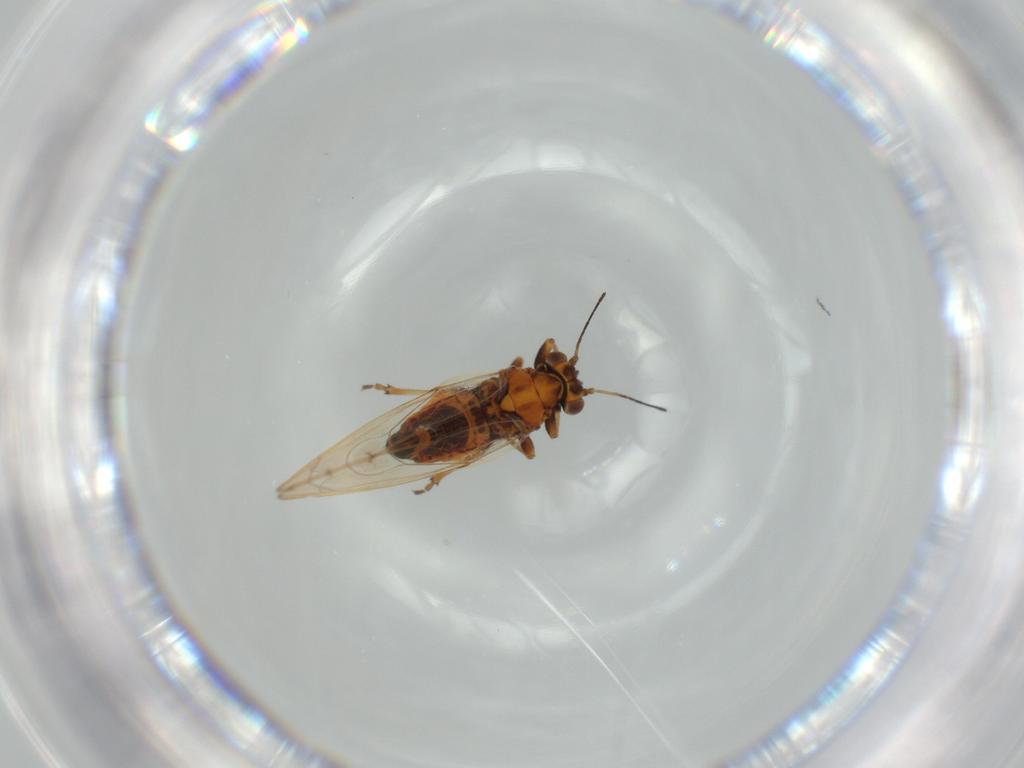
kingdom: Animalia
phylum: Arthropoda
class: Insecta
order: Hemiptera
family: Triozidae
